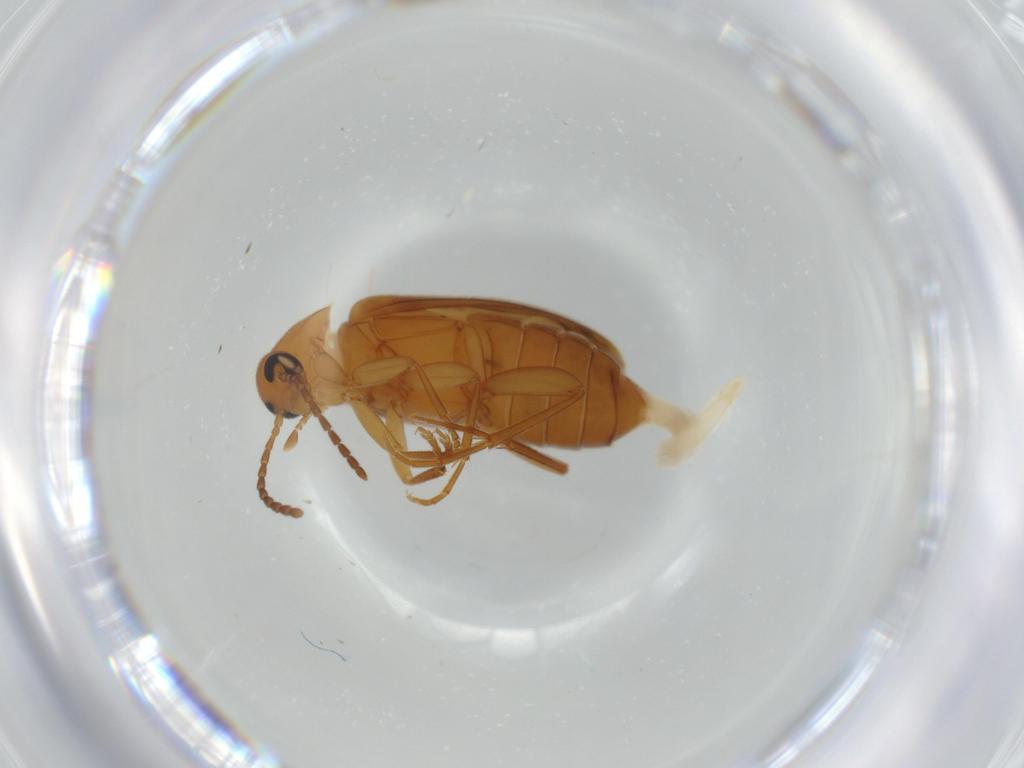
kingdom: Animalia
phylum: Arthropoda
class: Insecta
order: Coleoptera
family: Scraptiidae
